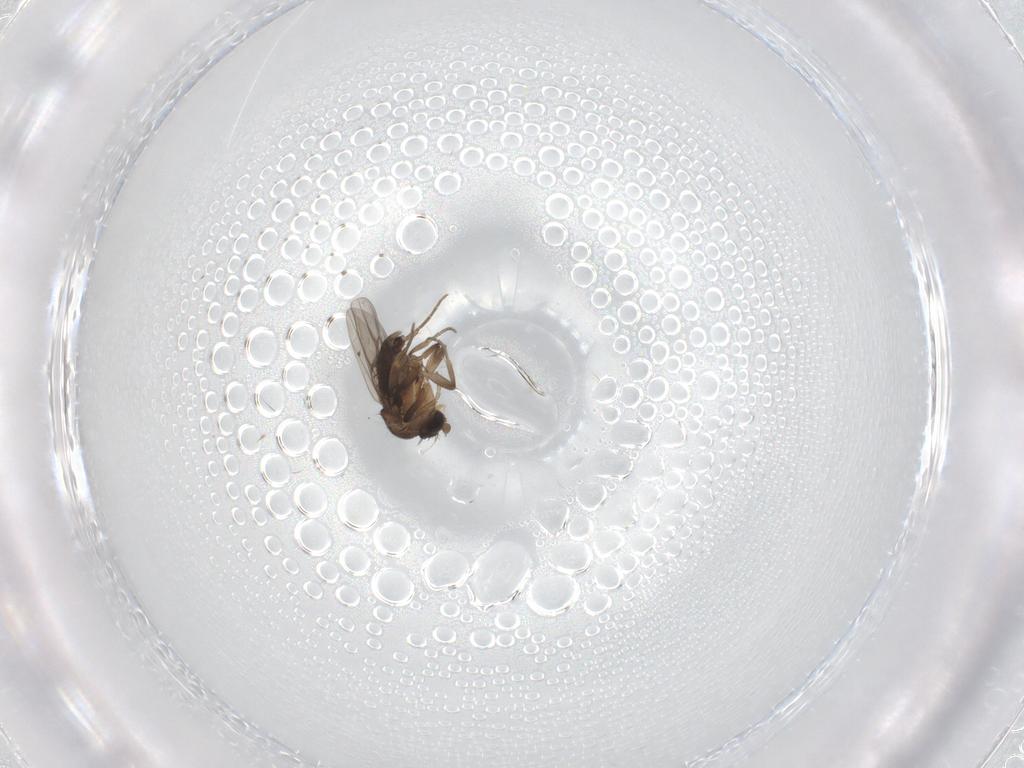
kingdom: Animalia
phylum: Arthropoda
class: Insecta
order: Diptera
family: Phoridae
